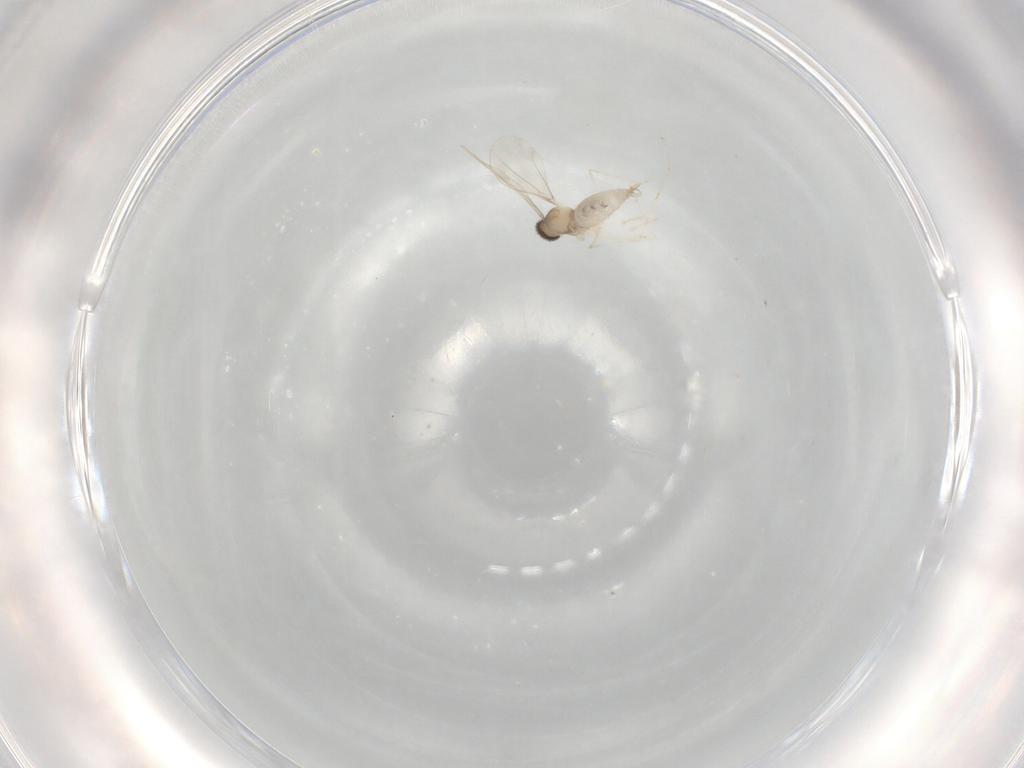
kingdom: Animalia
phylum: Arthropoda
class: Insecta
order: Diptera
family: Cecidomyiidae
